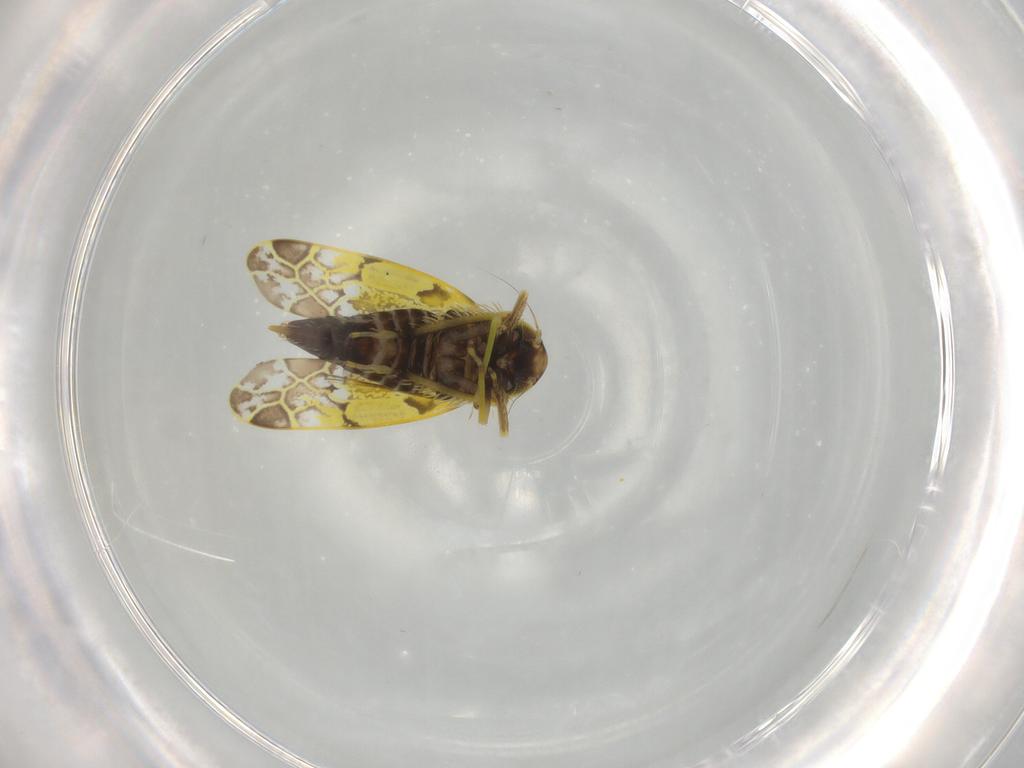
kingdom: Animalia
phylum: Arthropoda
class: Insecta
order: Hemiptera
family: Cicadellidae
